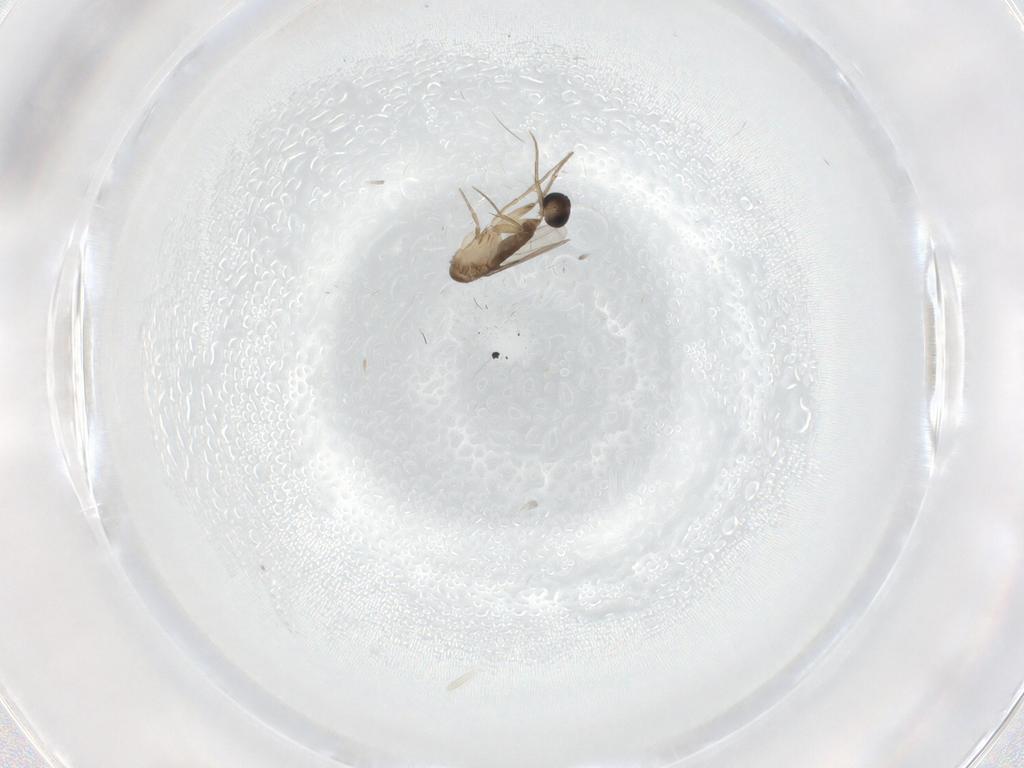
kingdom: Animalia
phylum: Arthropoda
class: Insecta
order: Diptera
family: Phoridae
